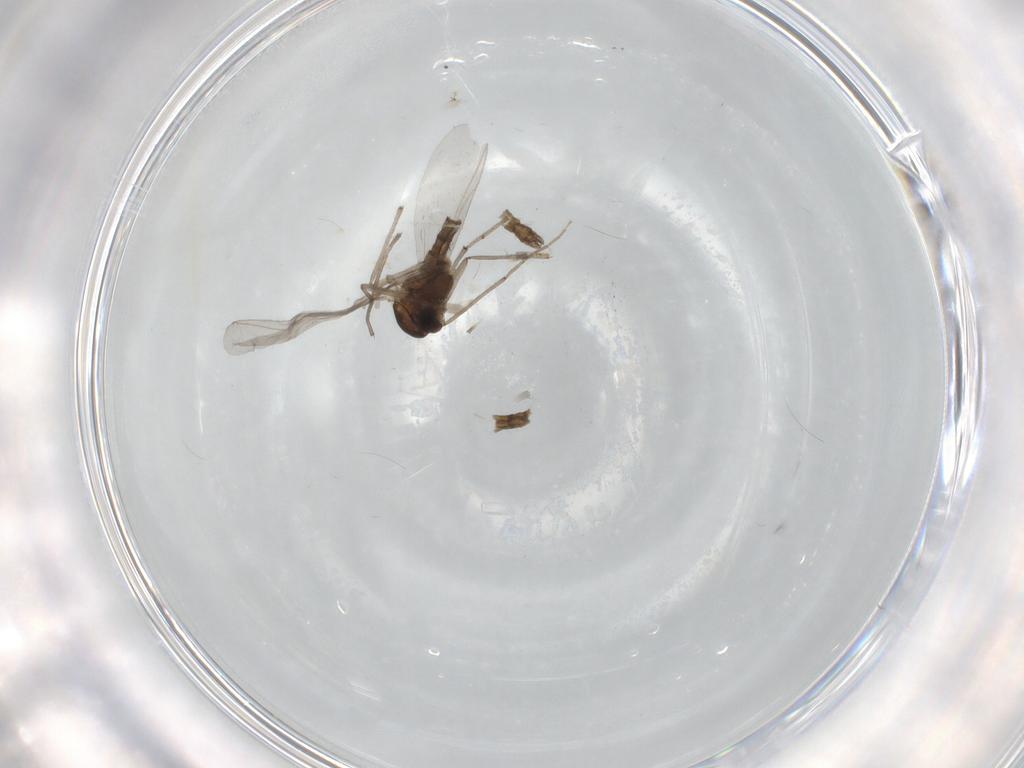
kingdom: Animalia
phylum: Arthropoda
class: Insecta
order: Diptera
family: Chironomidae
